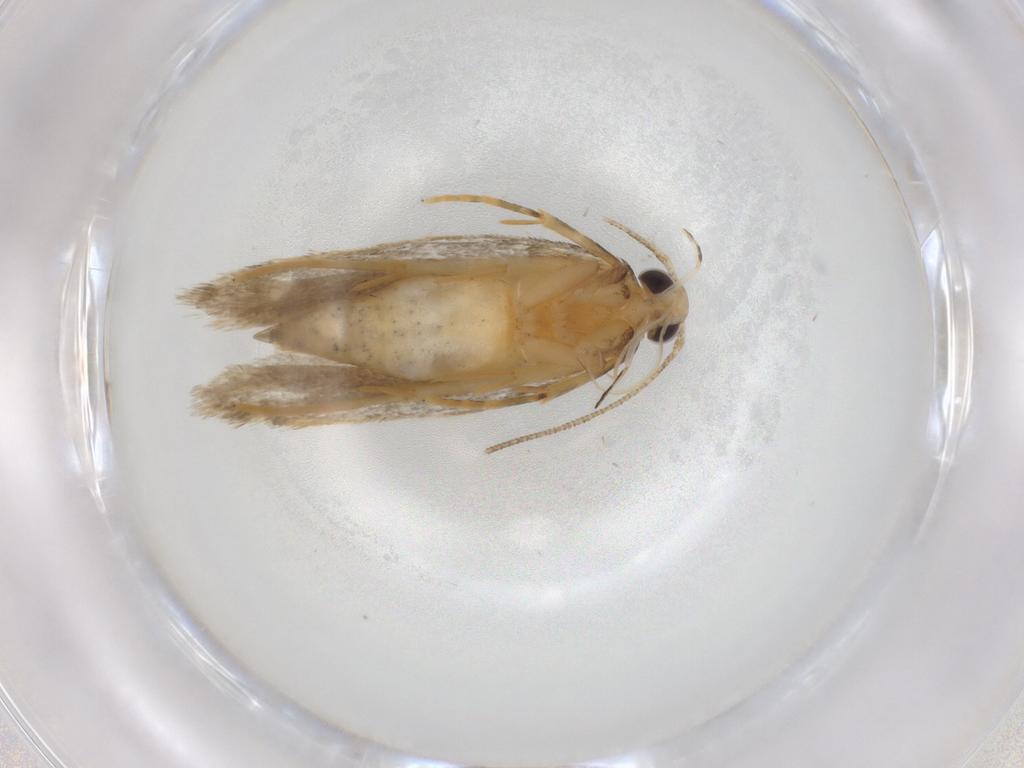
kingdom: Animalia
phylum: Arthropoda
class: Insecta
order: Lepidoptera
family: Autostichidae
